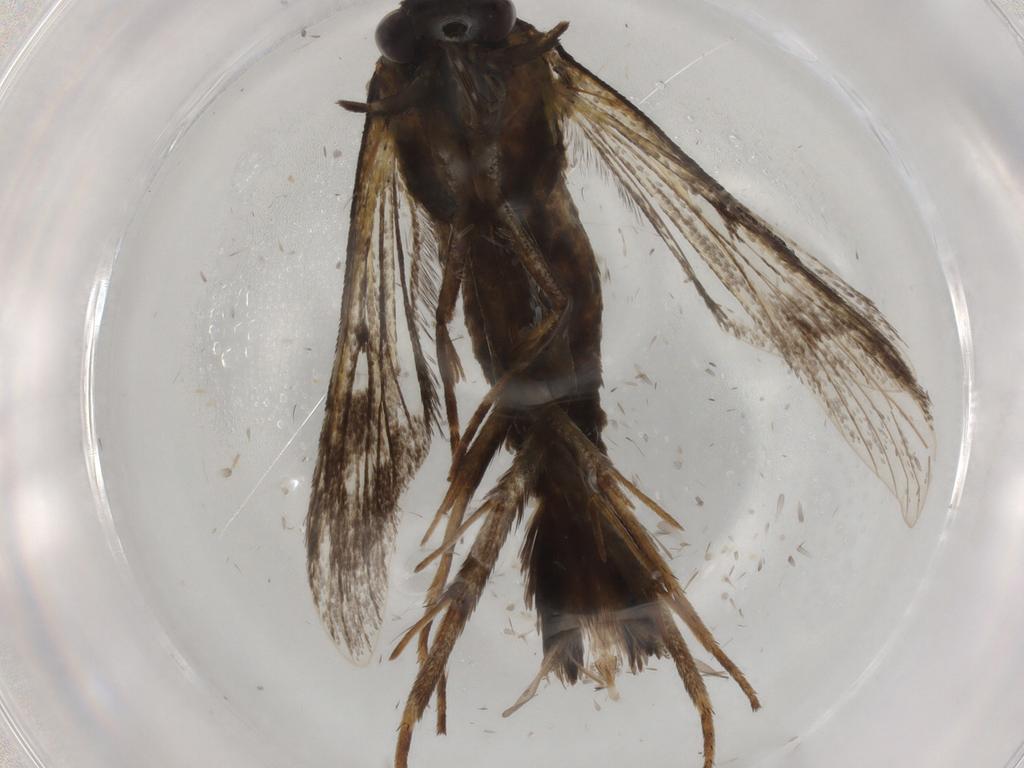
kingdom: Animalia
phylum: Arthropoda
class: Insecta
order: Lepidoptera
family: Sesiidae
